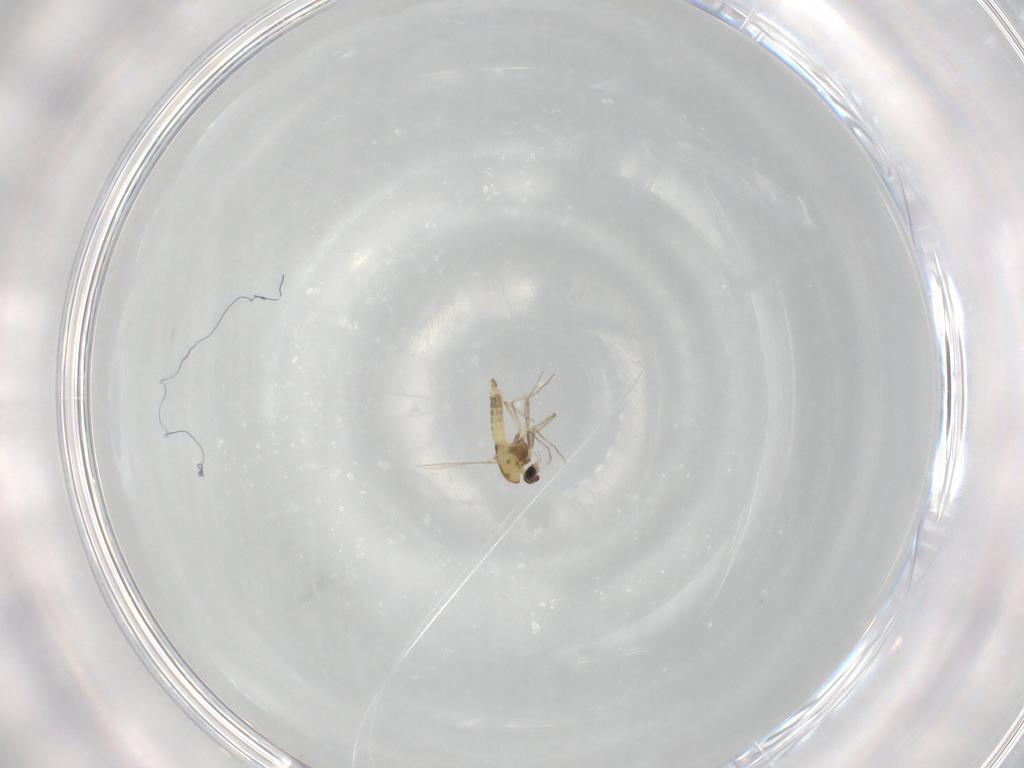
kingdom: Animalia
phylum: Arthropoda
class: Insecta
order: Diptera
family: Chironomidae
